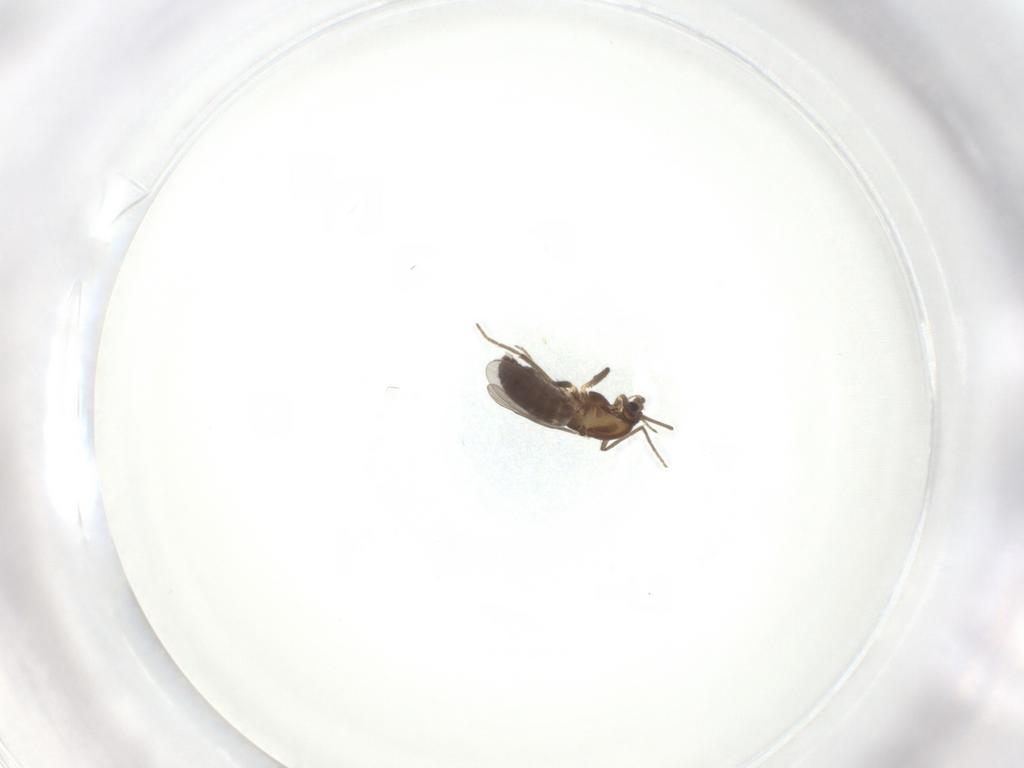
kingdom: Animalia
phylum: Arthropoda
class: Insecta
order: Diptera
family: Chironomidae
